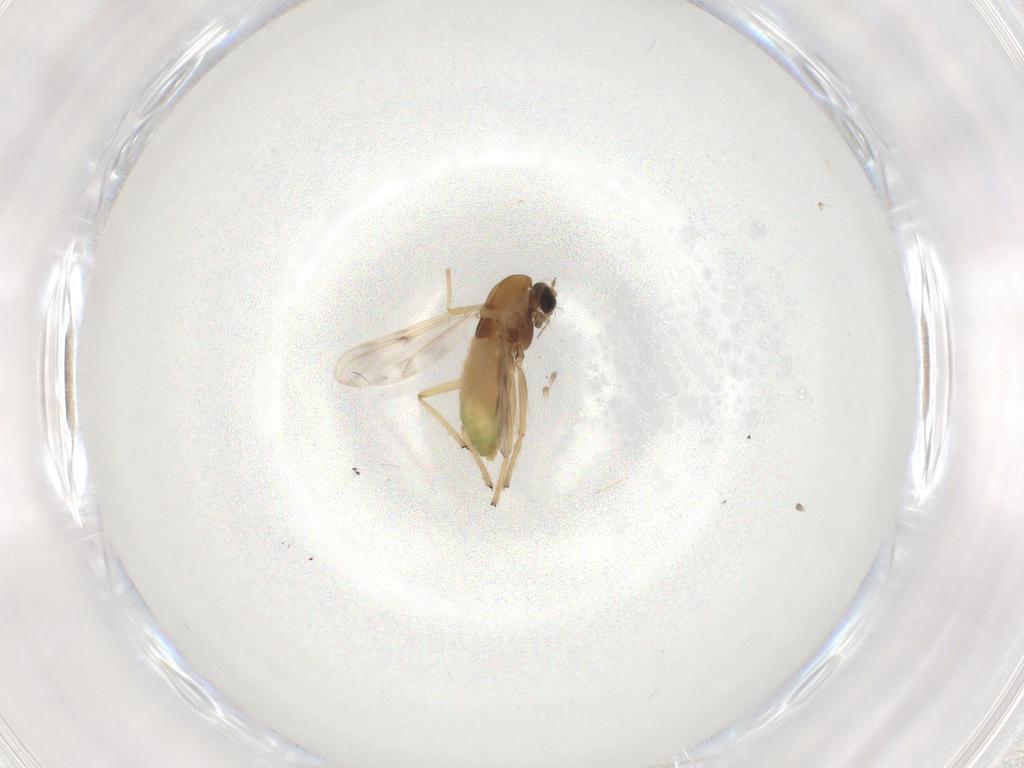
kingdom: Animalia
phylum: Arthropoda
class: Insecta
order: Diptera
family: Chironomidae
